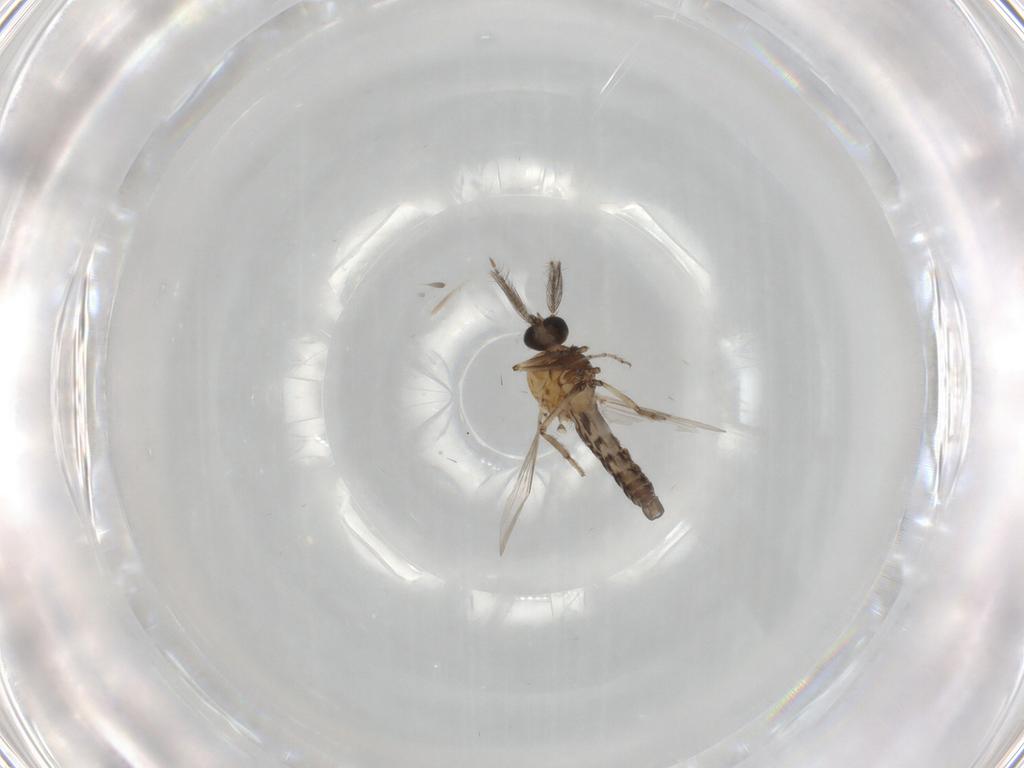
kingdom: Animalia
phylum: Arthropoda
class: Insecta
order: Diptera
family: Ceratopogonidae
